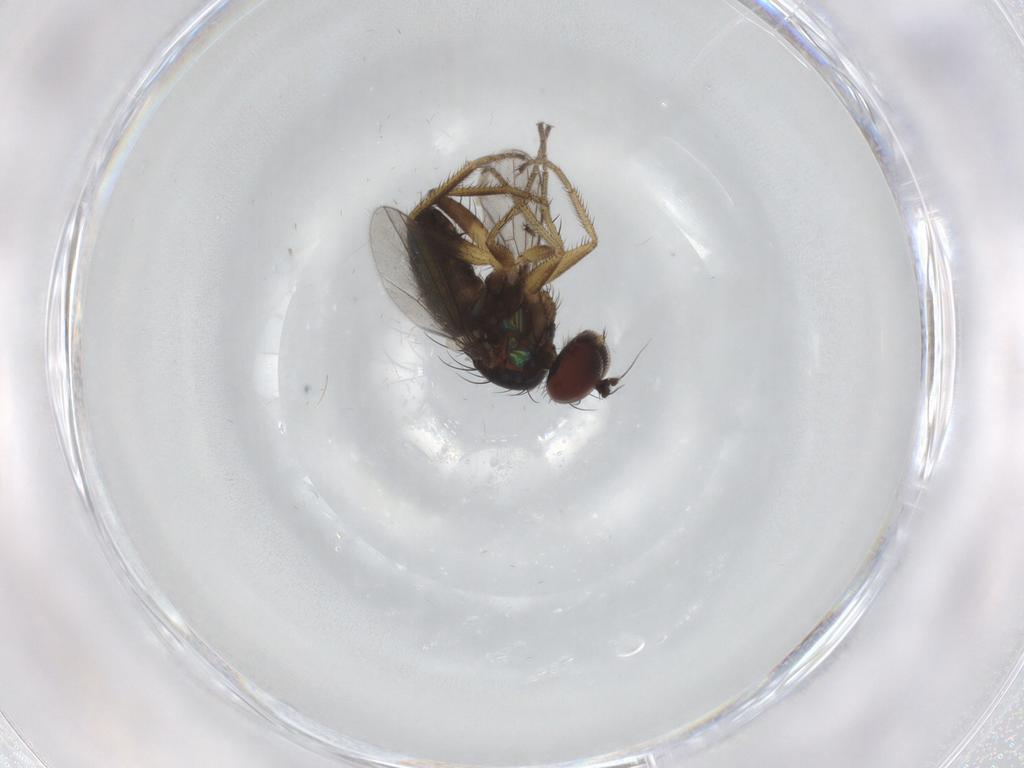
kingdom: Animalia
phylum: Arthropoda
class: Insecta
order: Diptera
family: Dolichopodidae
